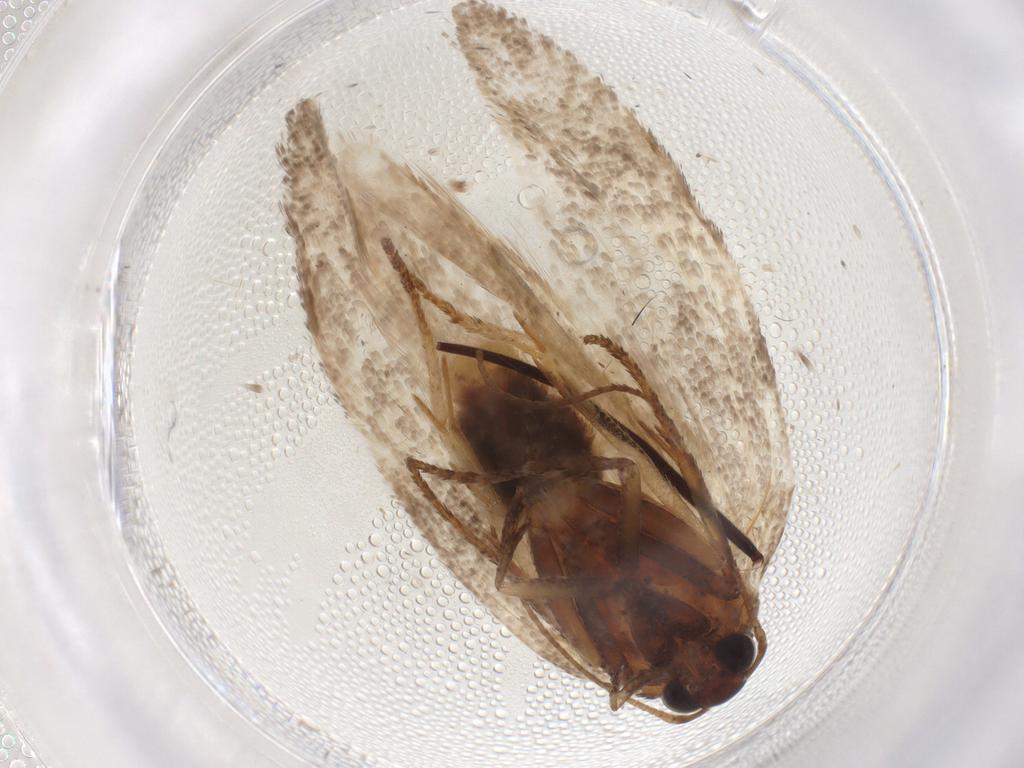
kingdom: Animalia
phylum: Arthropoda
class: Insecta
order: Lepidoptera
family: Cosmopterigidae
